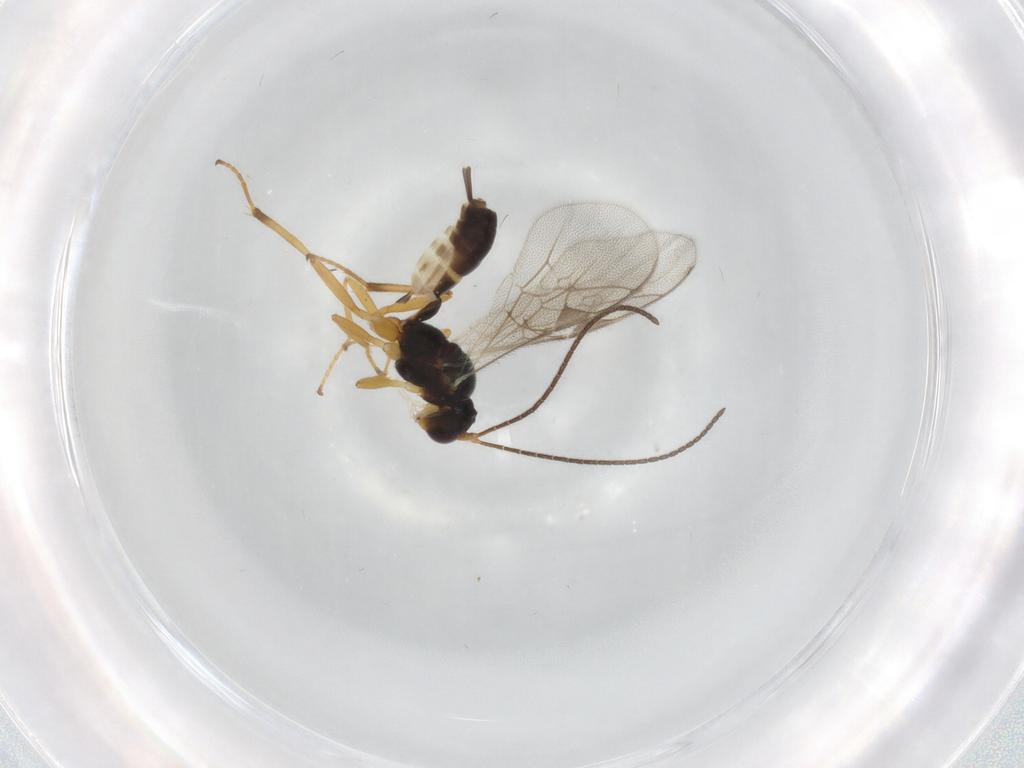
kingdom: Animalia
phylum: Arthropoda
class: Insecta
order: Hymenoptera
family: Ichneumonidae
